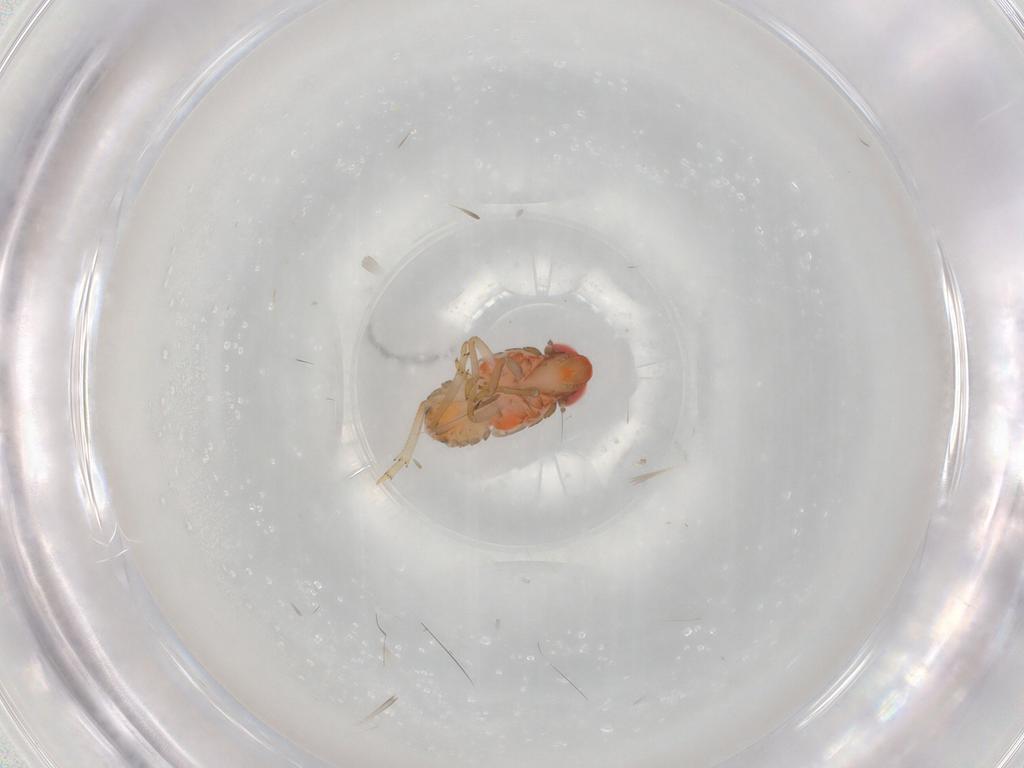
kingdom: Animalia
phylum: Arthropoda
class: Insecta
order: Hemiptera
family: Issidae
